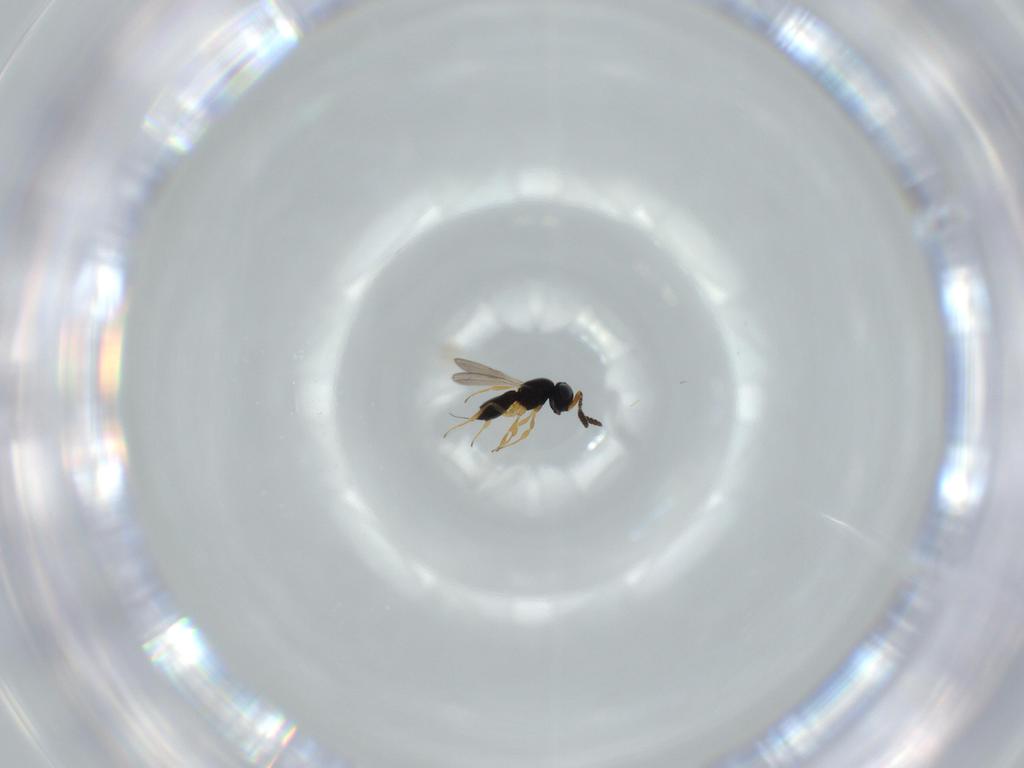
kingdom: Animalia
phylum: Arthropoda
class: Insecta
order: Hymenoptera
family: Scelionidae
